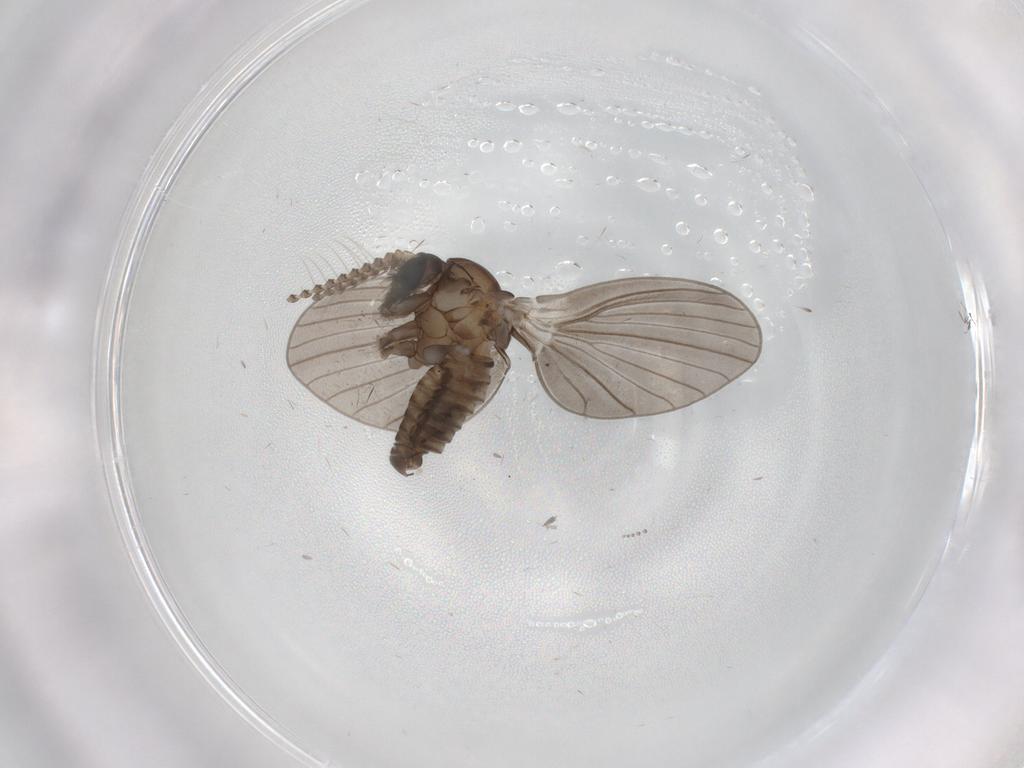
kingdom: Animalia
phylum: Arthropoda
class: Insecta
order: Diptera
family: Psychodidae
